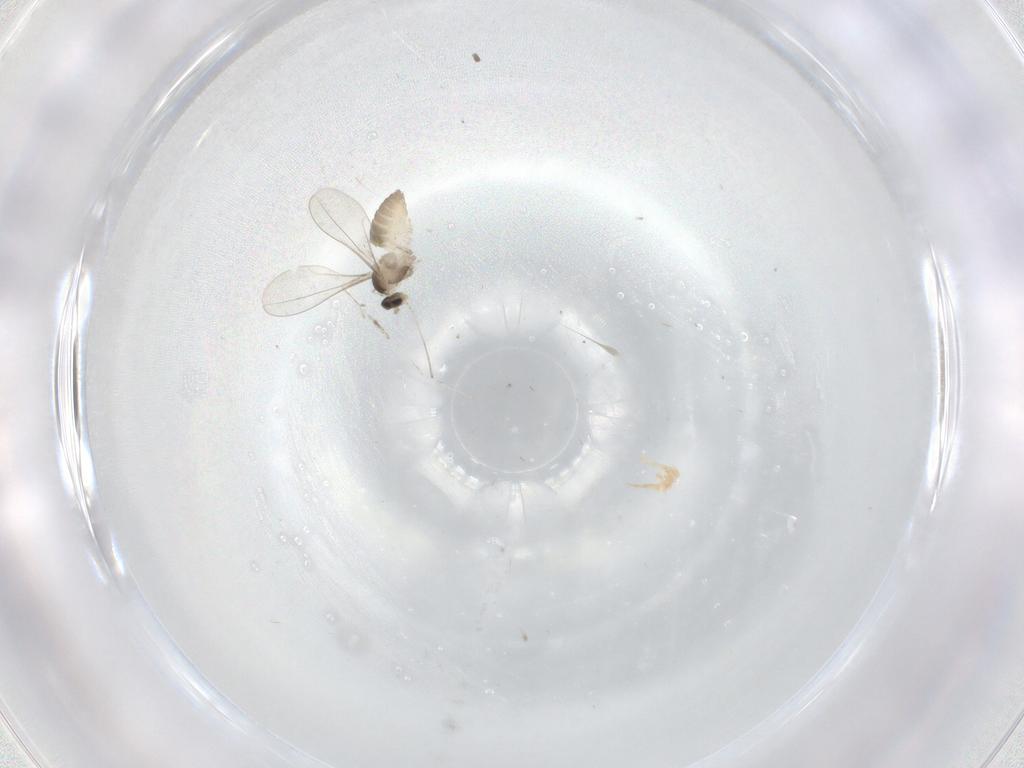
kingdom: Animalia
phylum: Arthropoda
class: Insecta
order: Diptera
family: Cecidomyiidae
